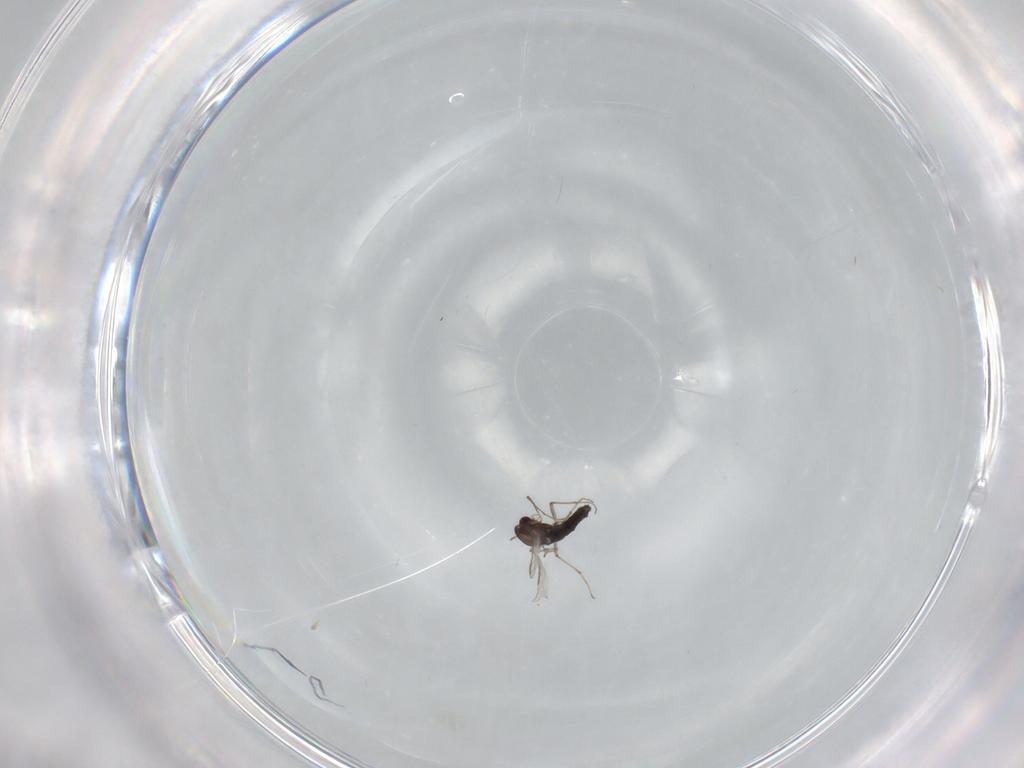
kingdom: Animalia
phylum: Arthropoda
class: Insecta
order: Diptera
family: Chironomidae
